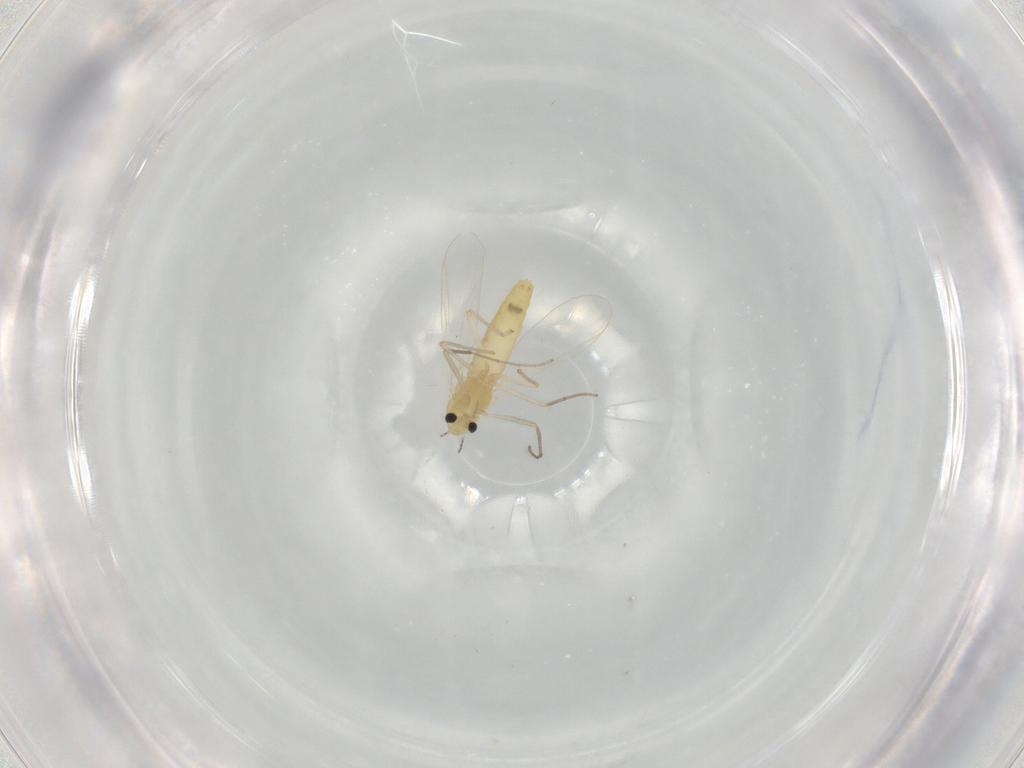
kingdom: Animalia
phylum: Arthropoda
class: Insecta
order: Diptera
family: Chironomidae
